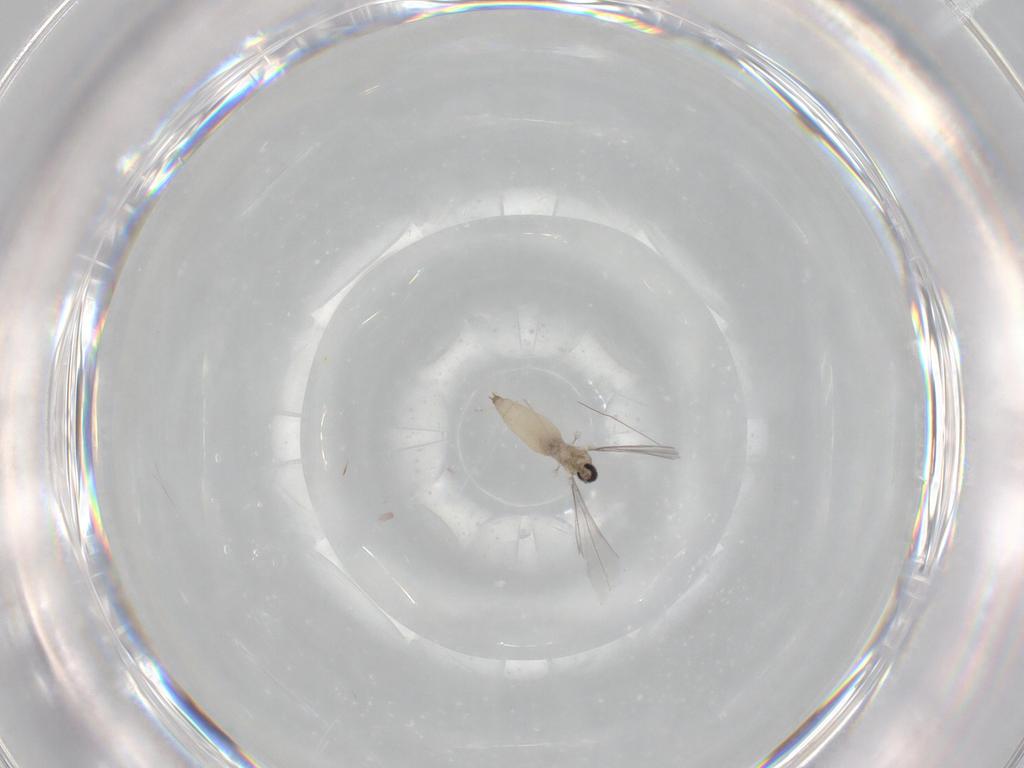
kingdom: Animalia
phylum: Arthropoda
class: Insecta
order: Diptera
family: Cecidomyiidae
